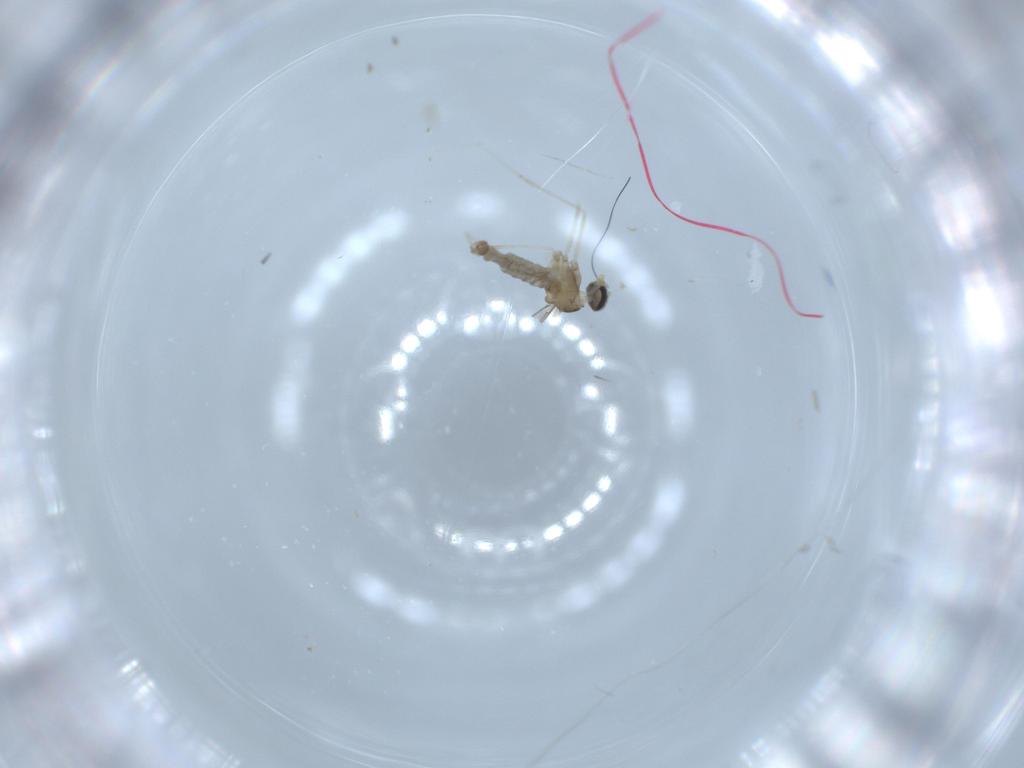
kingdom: Animalia
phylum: Arthropoda
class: Insecta
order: Diptera
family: Cecidomyiidae
